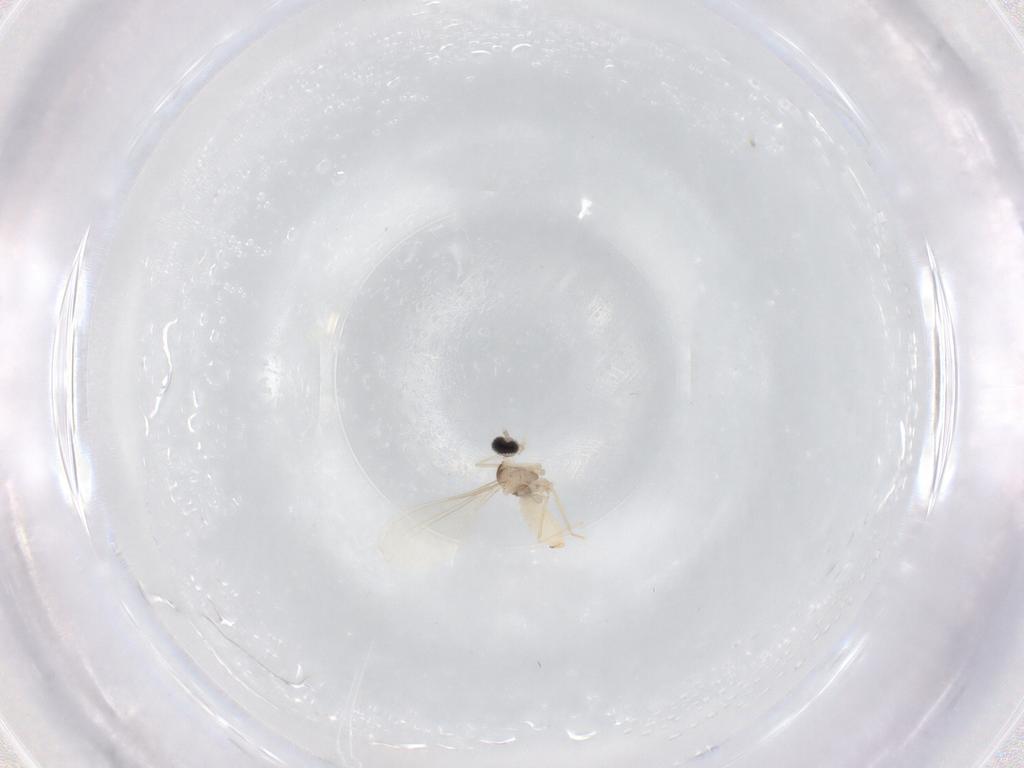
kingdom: Animalia
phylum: Arthropoda
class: Insecta
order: Diptera
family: Cecidomyiidae
